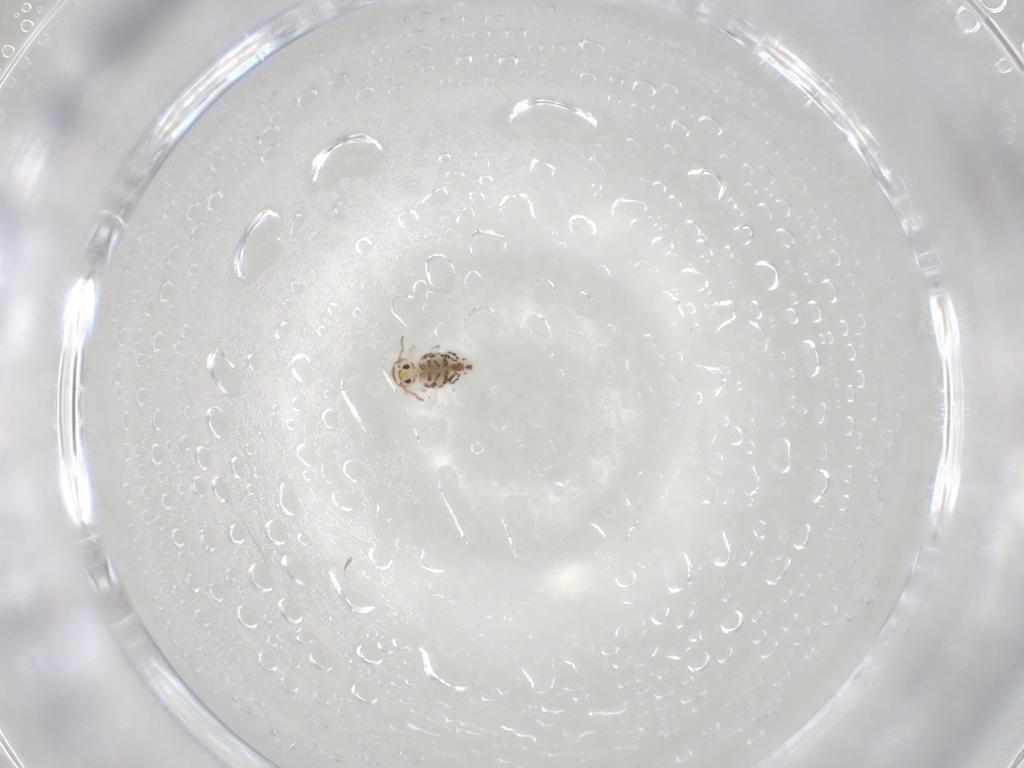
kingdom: Animalia
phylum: Arthropoda
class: Collembola
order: Symphypleona
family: Bourletiellidae
